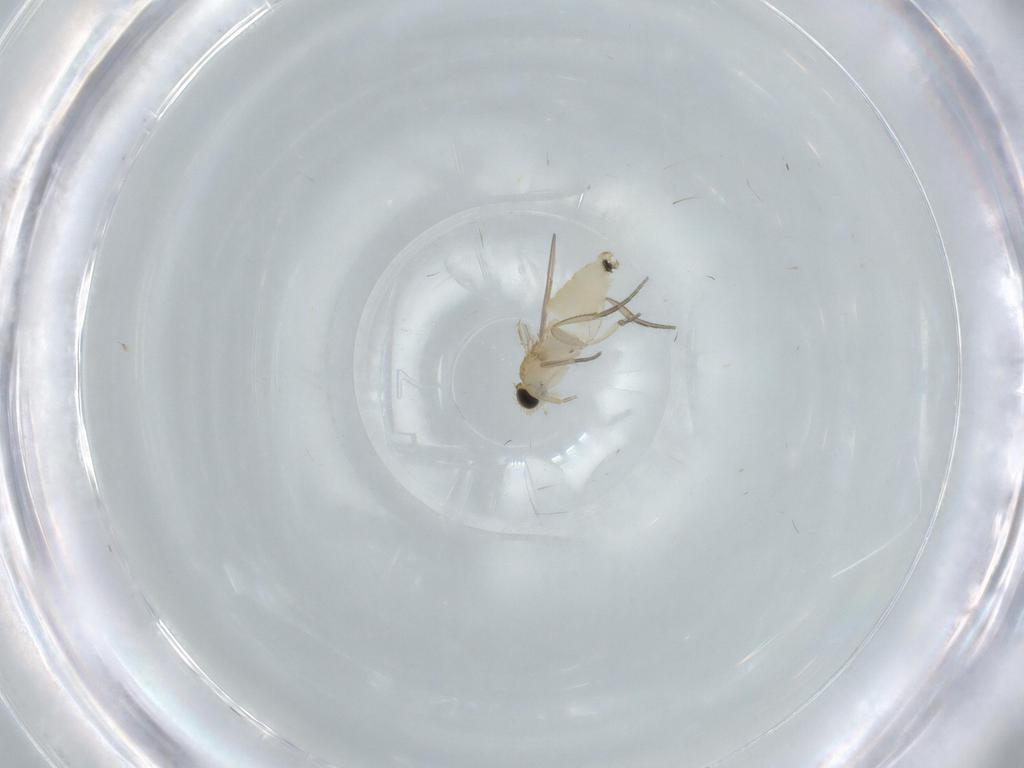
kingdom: Animalia
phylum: Arthropoda
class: Insecta
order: Diptera
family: Phoridae
